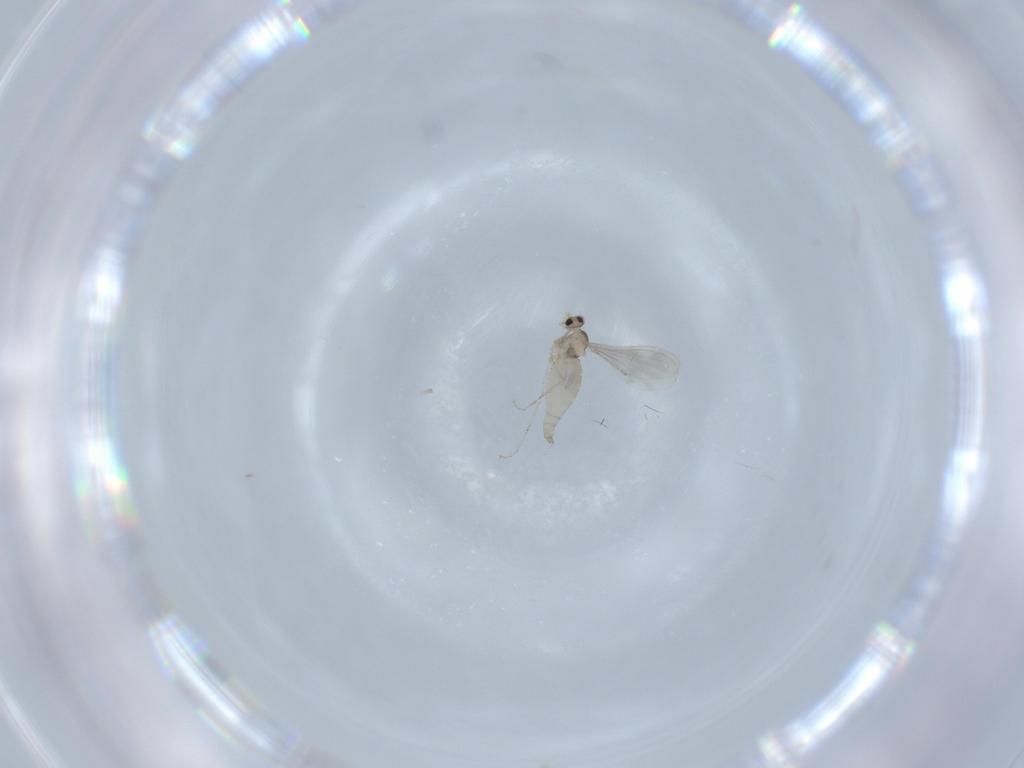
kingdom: Animalia
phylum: Arthropoda
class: Insecta
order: Diptera
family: Cecidomyiidae
